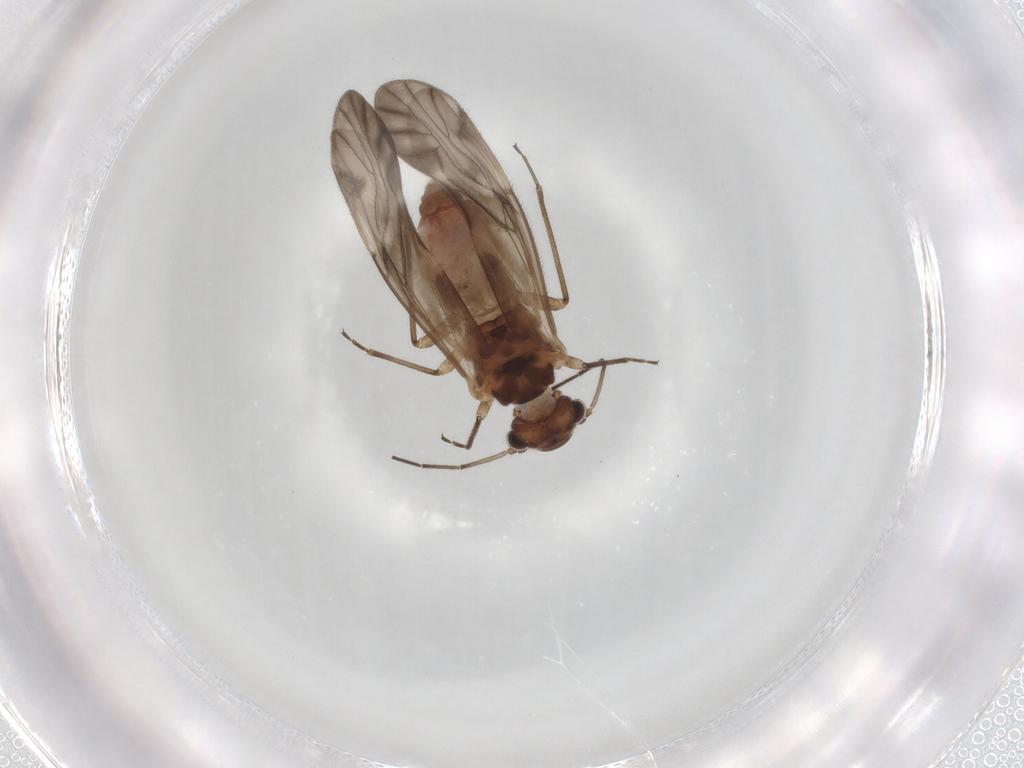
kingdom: Animalia
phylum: Arthropoda
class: Insecta
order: Psocodea
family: Caeciliusidae
